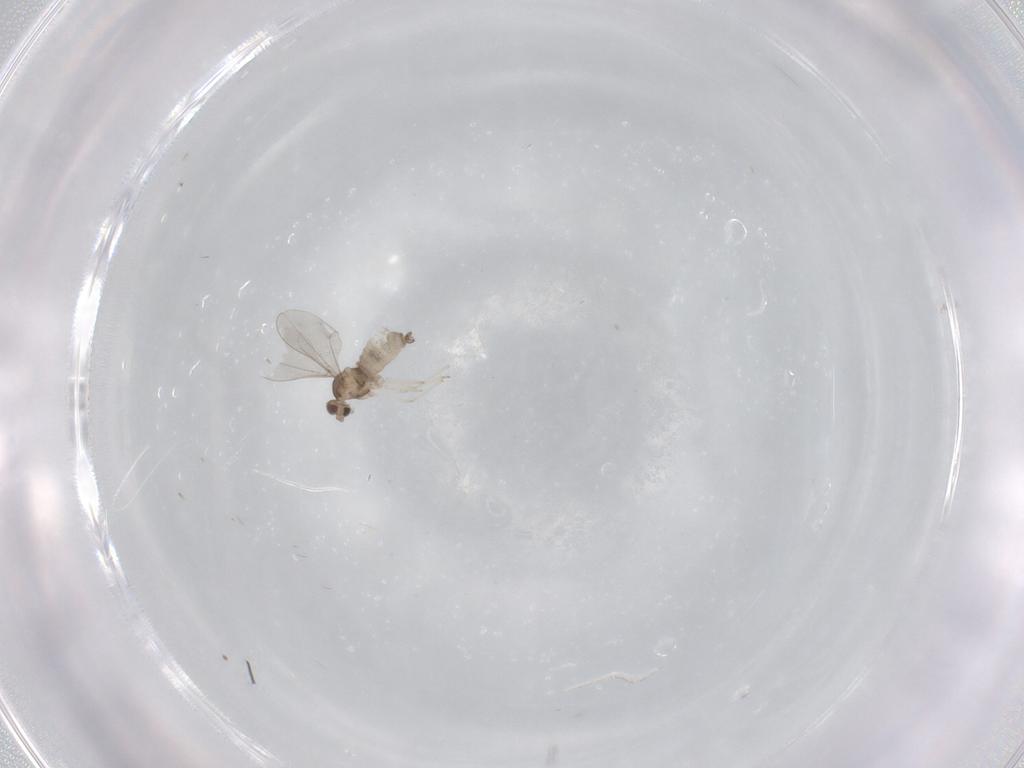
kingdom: Animalia
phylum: Arthropoda
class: Insecta
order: Diptera
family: Cecidomyiidae
